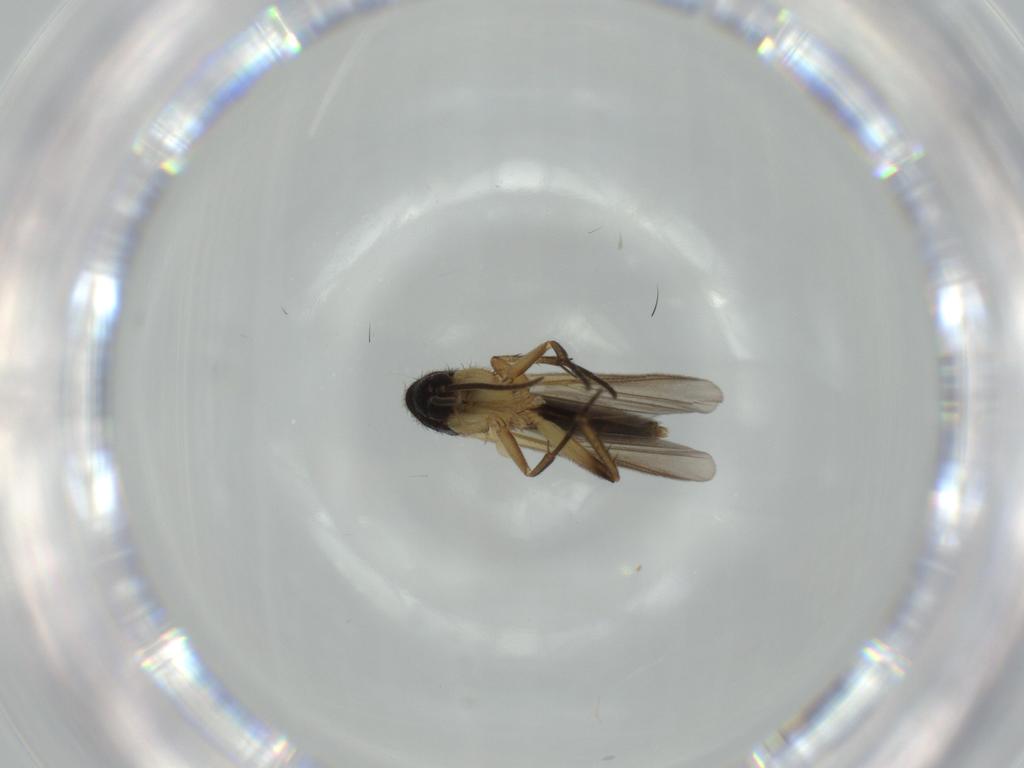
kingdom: Animalia
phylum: Arthropoda
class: Insecta
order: Diptera
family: Mycetophilidae
